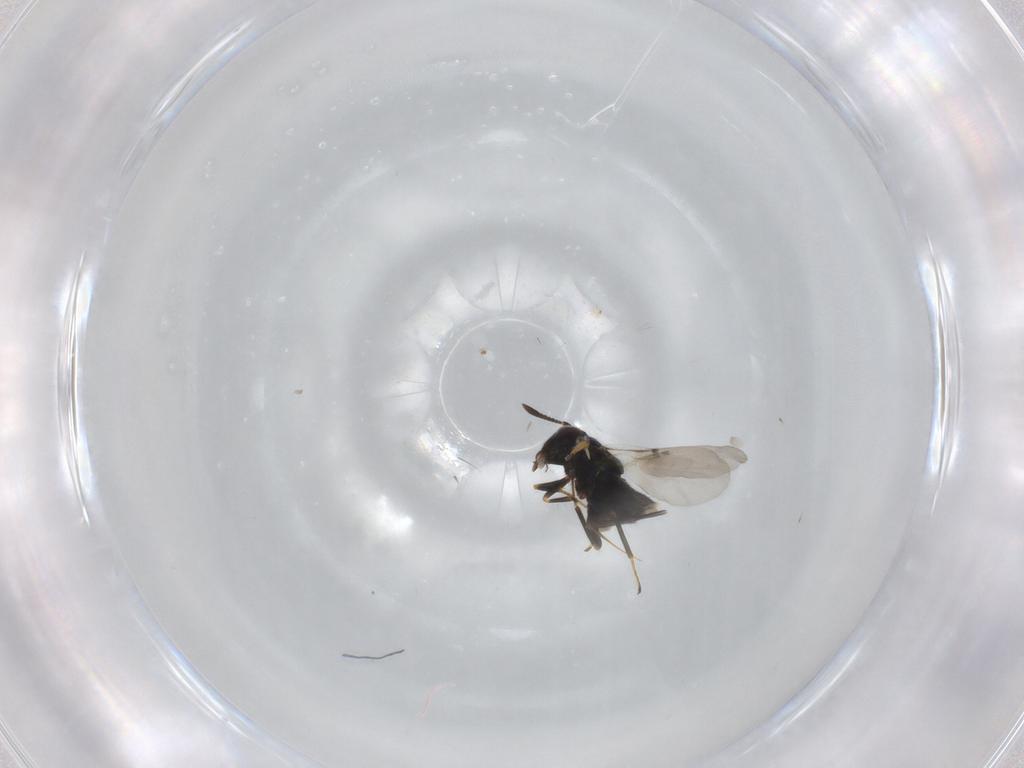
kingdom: Animalia
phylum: Arthropoda
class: Insecta
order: Hymenoptera
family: Encyrtidae
